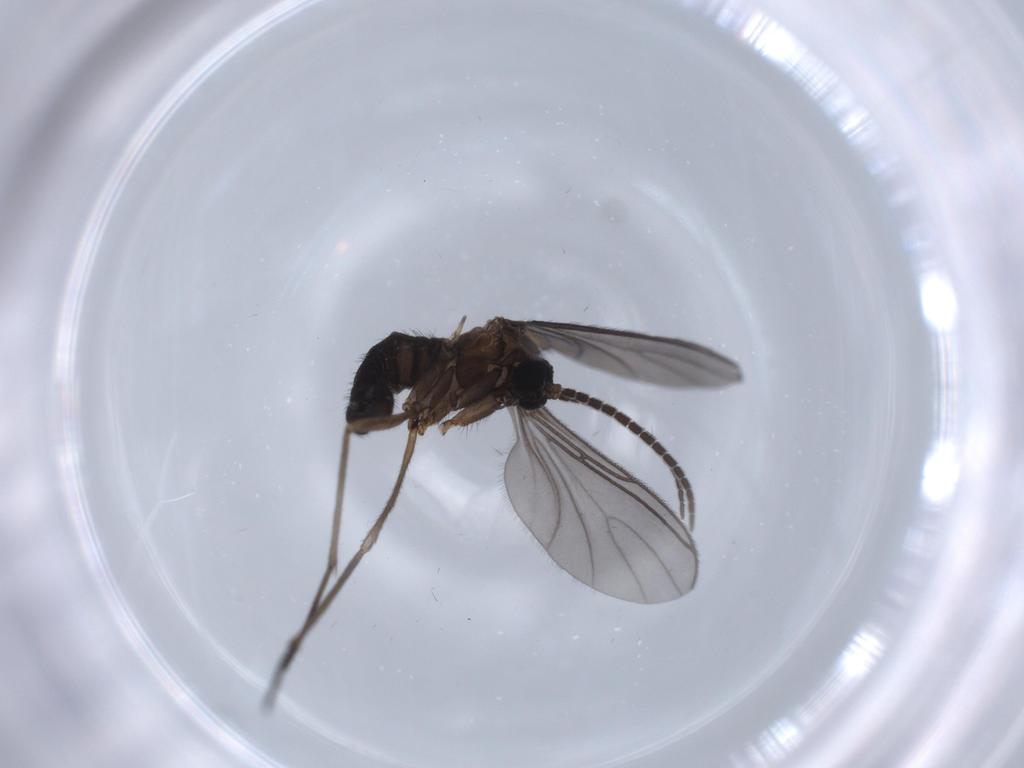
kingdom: Animalia
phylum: Arthropoda
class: Insecta
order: Diptera
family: Sciaridae
